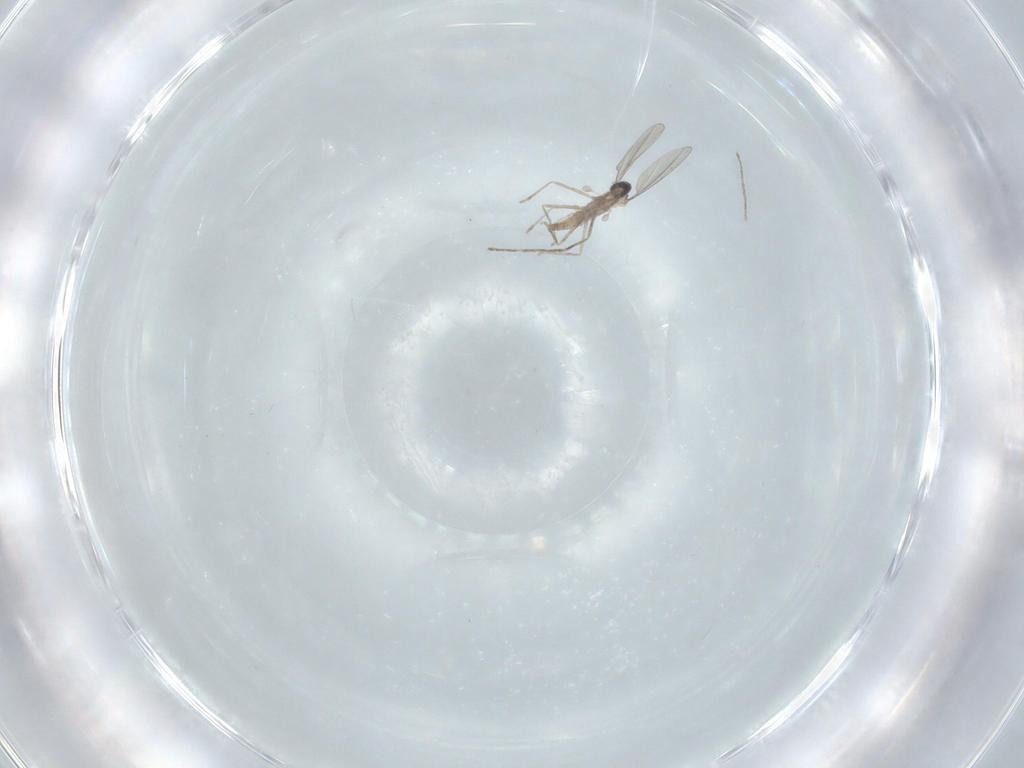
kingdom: Animalia
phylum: Arthropoda
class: Insecta
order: Diptera
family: Cecidomyiidae
